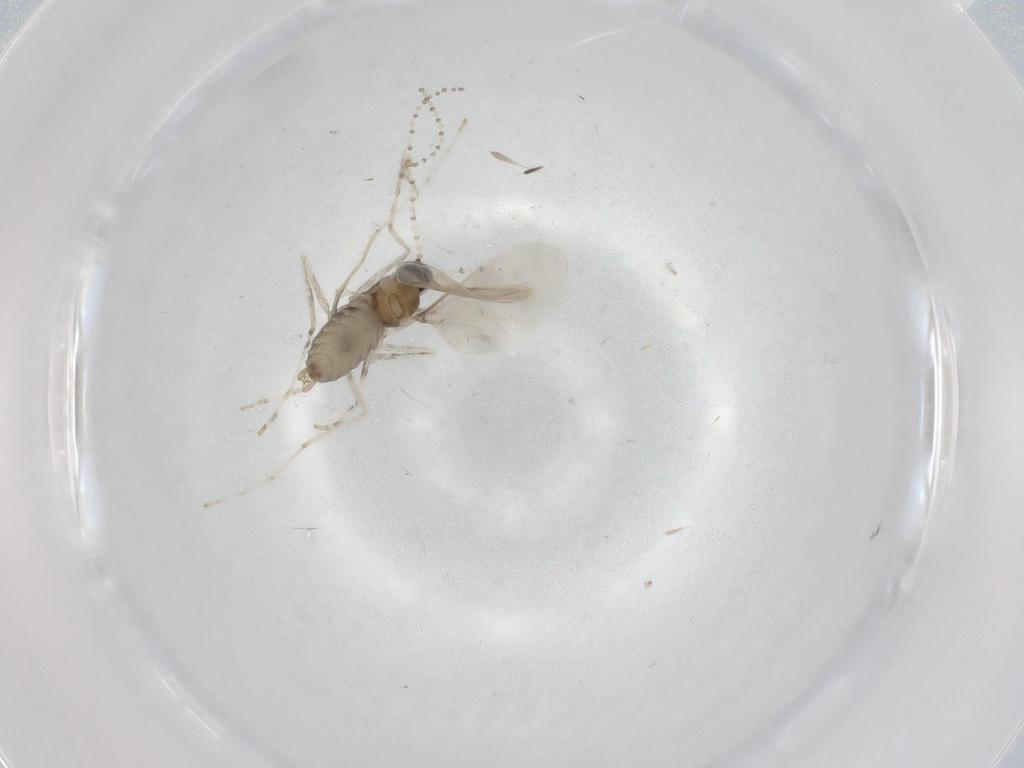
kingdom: Animalia
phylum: Arthropoda
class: Insecta
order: Diptera
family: Cecidomyiidae
